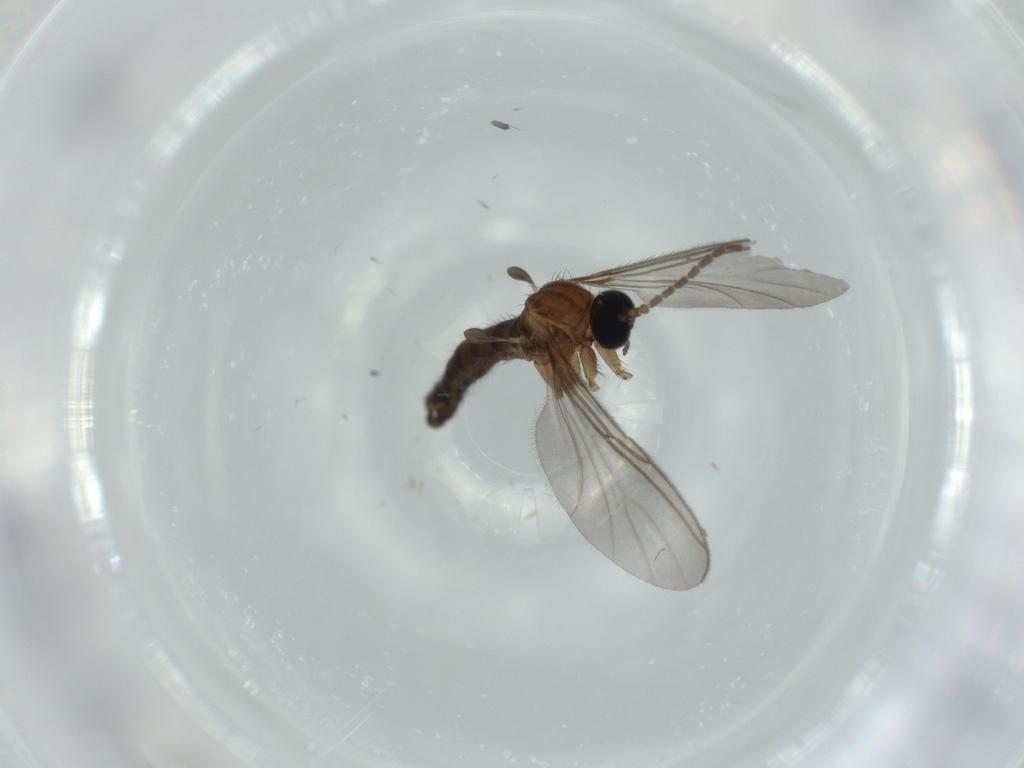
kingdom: Animalia
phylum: Arthropoda
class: Insecta
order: Diptera
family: Sciaridae
